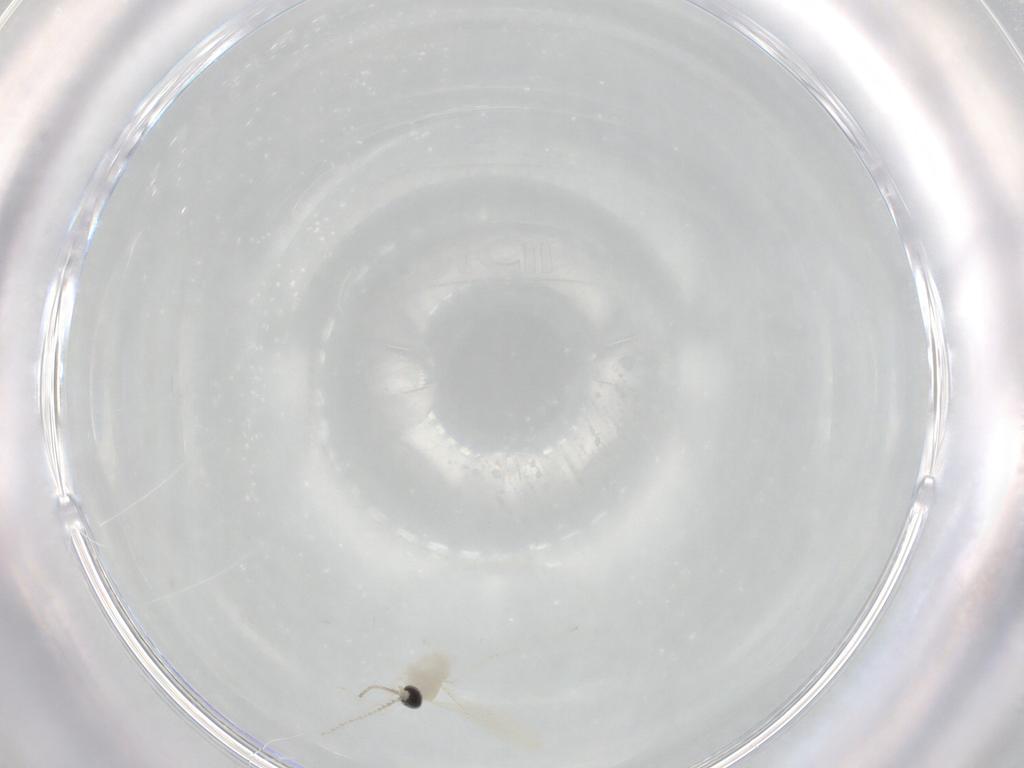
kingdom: Animalia
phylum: Arthropoda
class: Insecta
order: Diptera
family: Cecidomyiidae
